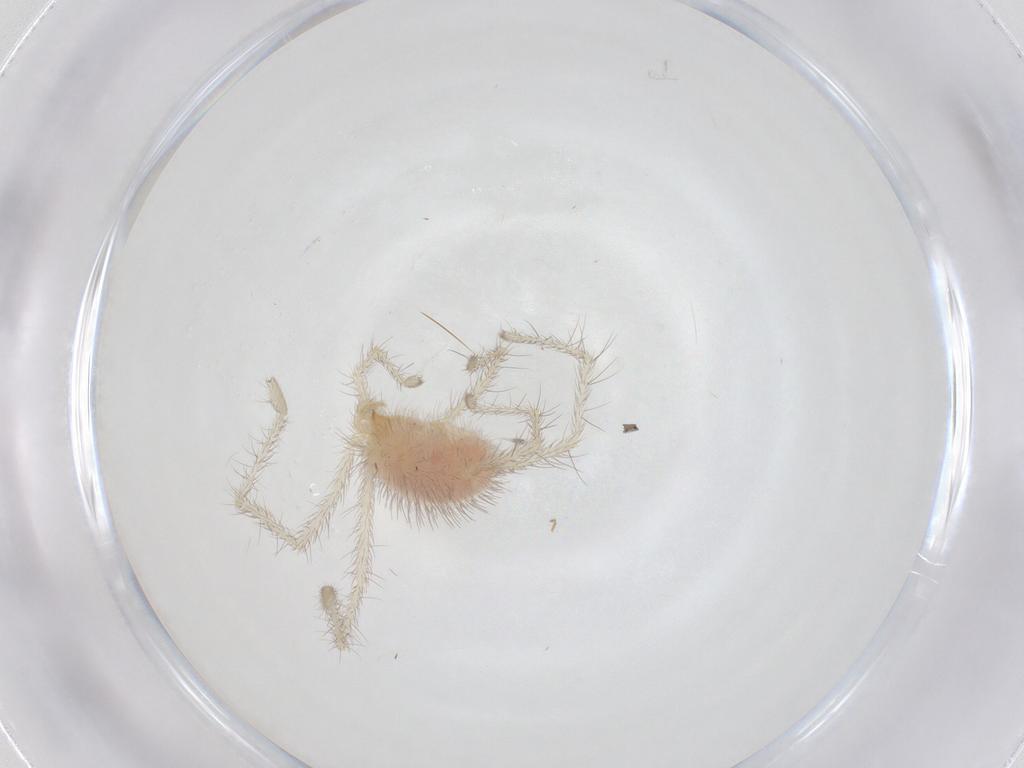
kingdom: Animalia
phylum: Arthropoda
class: Arachnida
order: Trombidiformes
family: Erythraeidae
